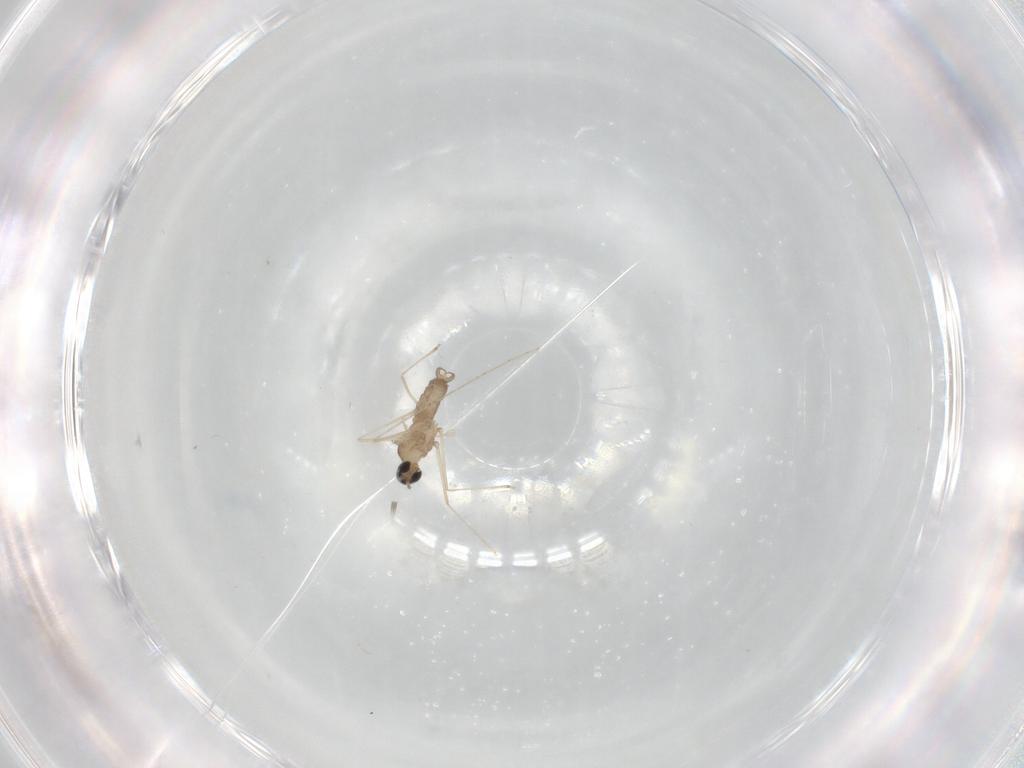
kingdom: Animalia
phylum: Arthropoda
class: Insecta
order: Diptera
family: Cecidomyiidae
